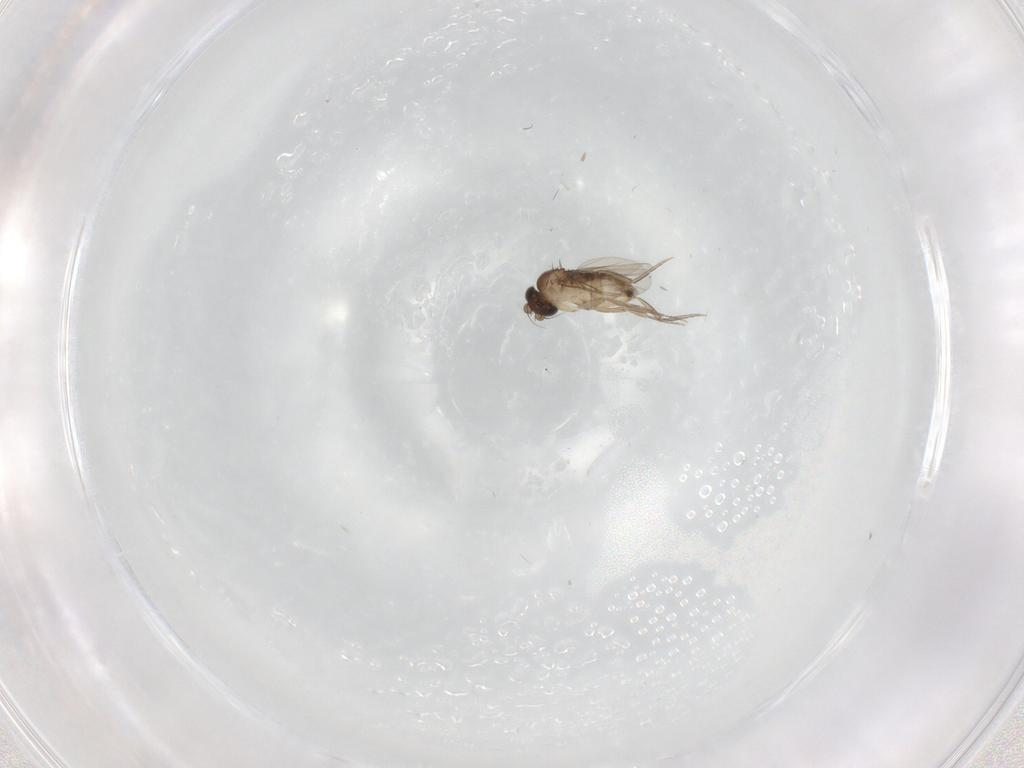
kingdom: Animalia
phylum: Arthropoda
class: Insecta
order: Diptera
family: Phoridae
